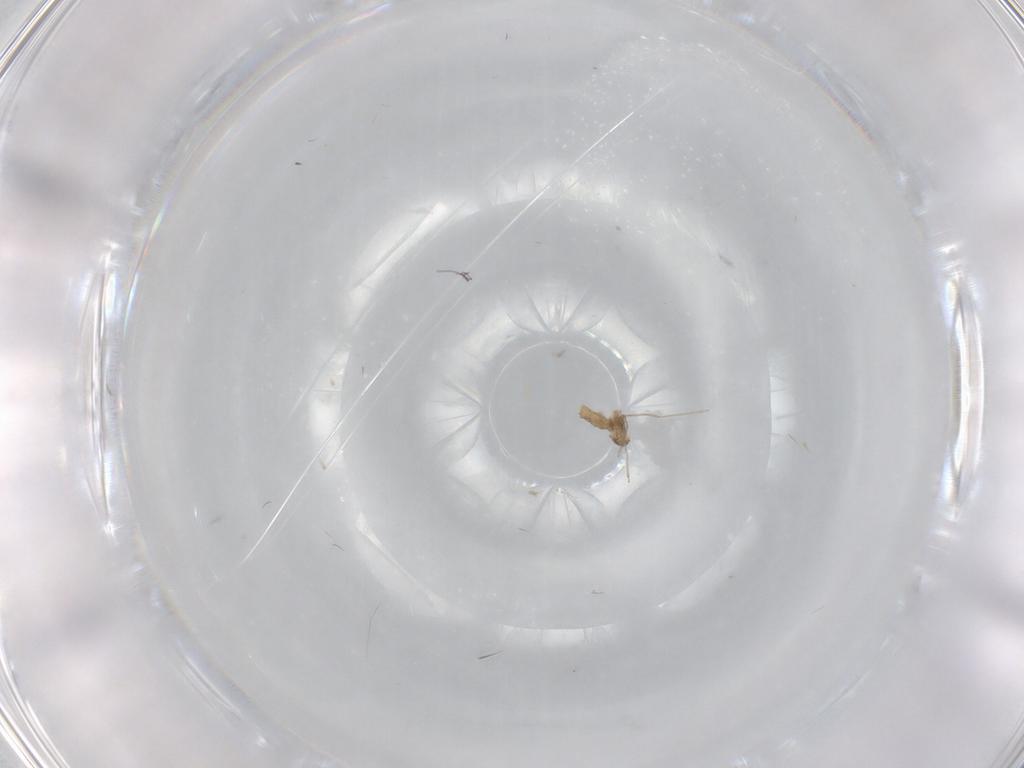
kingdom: Animalia
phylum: Arthropoda
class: Insecta
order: Diptera
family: Cecidomyiidae
